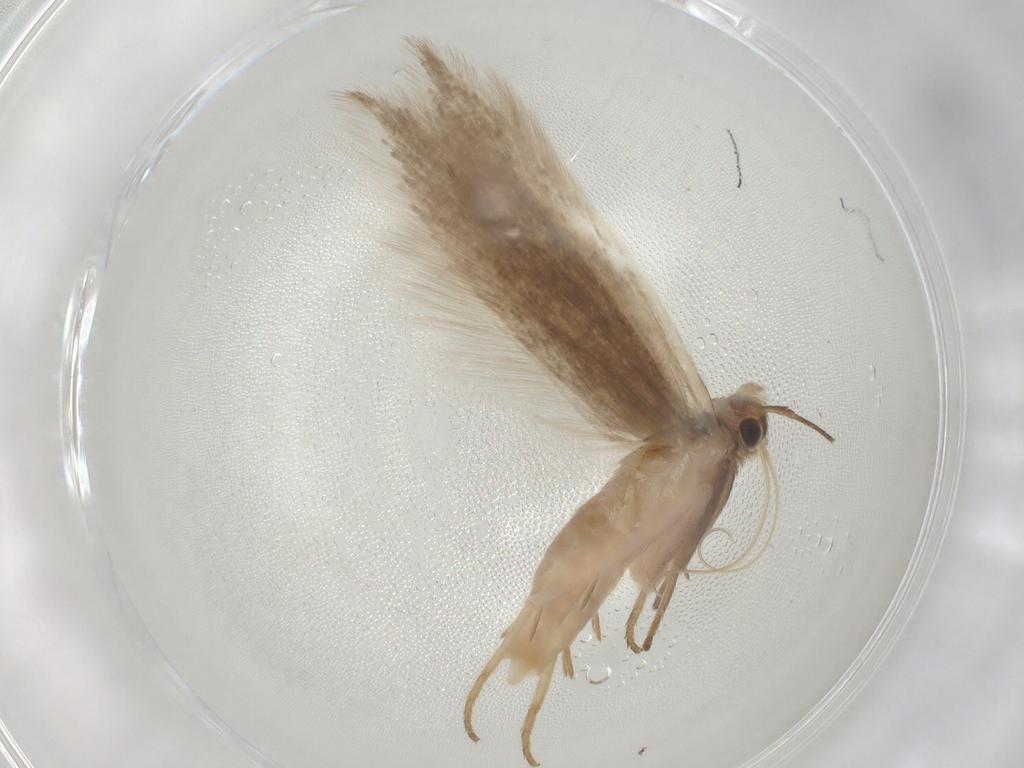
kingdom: Animalia
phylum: Arthropoda
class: Insecta
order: Lepidoptera
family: Gelechiidae
